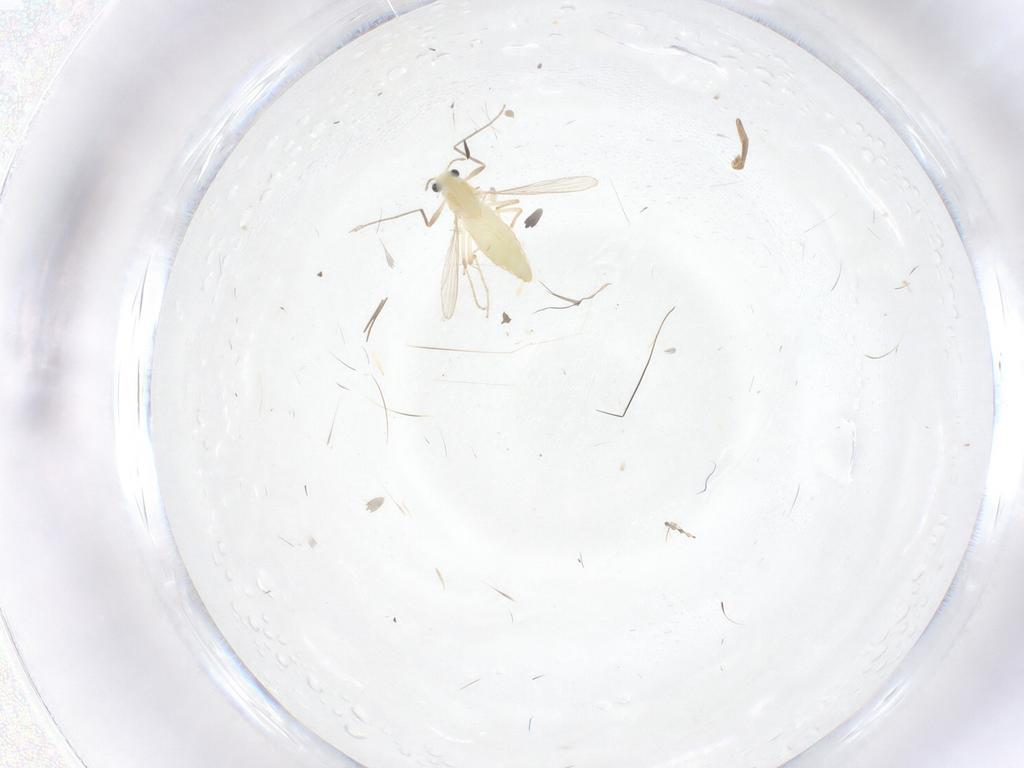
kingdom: Animalia
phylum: Arthropoda
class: Insecta
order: Diptera
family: Chironomidae
